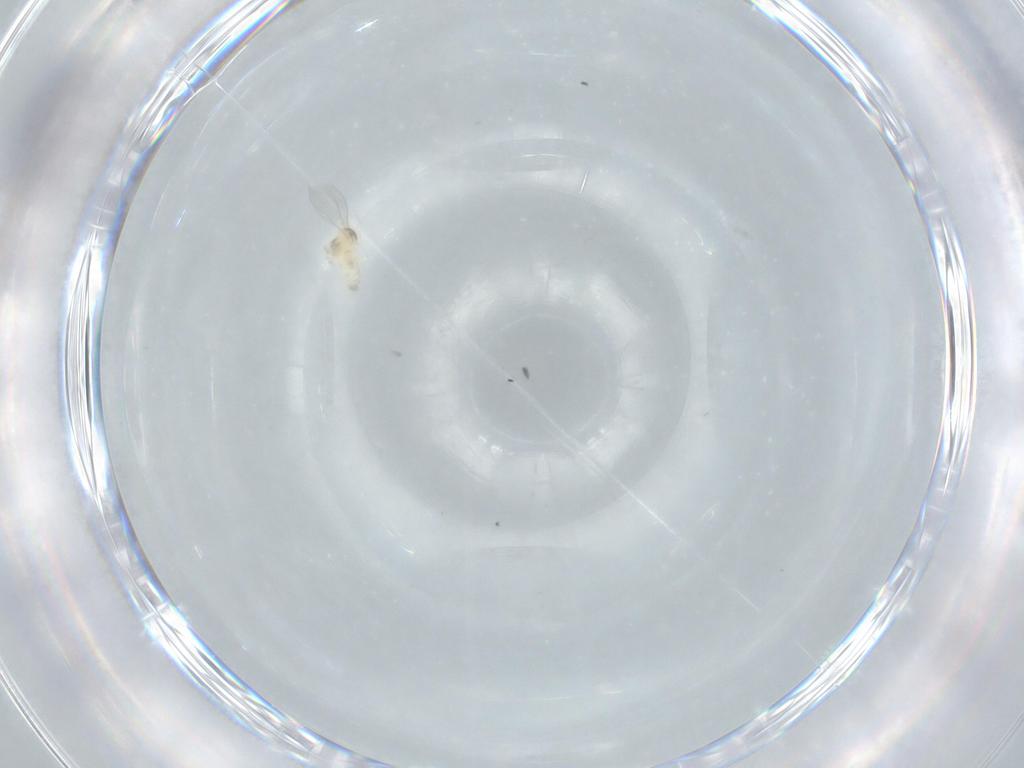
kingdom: Animalia
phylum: Arthropoda
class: Insecta
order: Diptera
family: Cecidomyiidae
